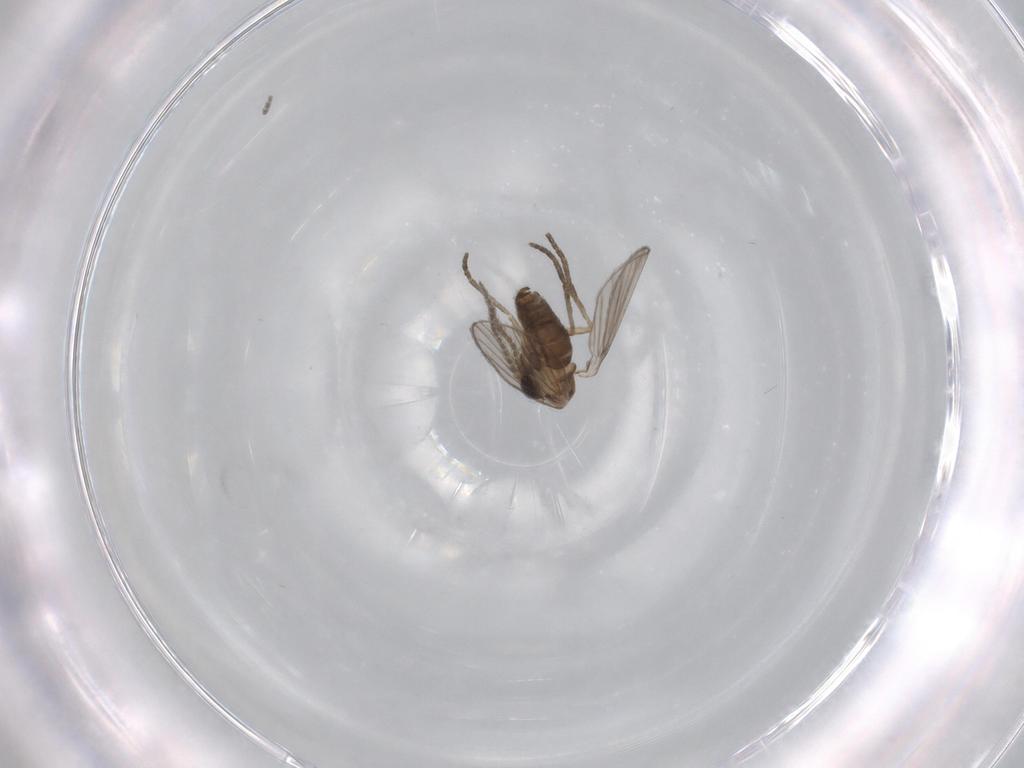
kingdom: Animalia
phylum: Arthropoda
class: Insecta
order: Diptera
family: Psychodidae
